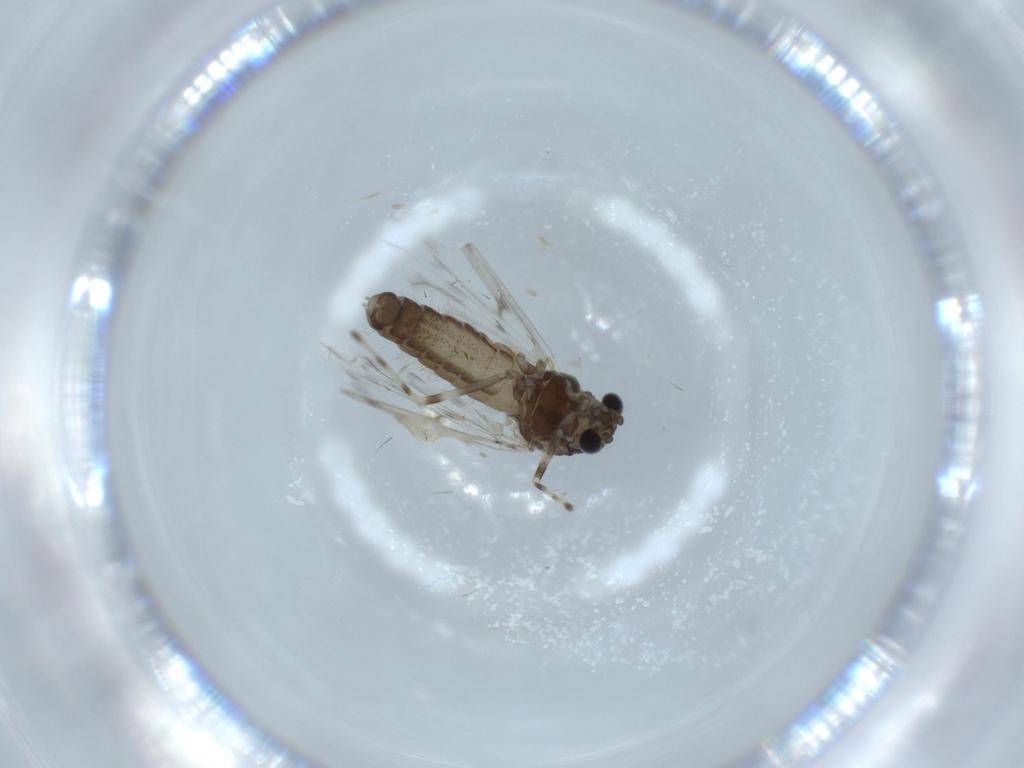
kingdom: Animalia
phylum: Arthropoda
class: Insecta
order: Diptera
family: Chironomidae
